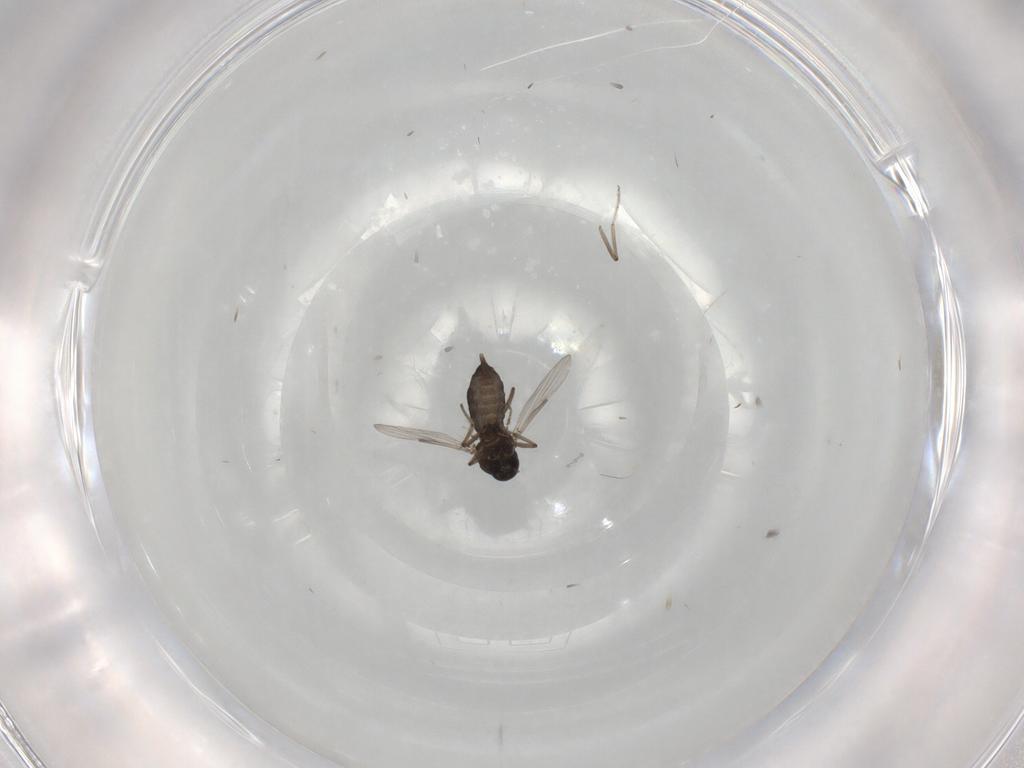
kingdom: Animalia
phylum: Arthropoda
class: Insecta
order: Diptera
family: Ceratopogonidae
